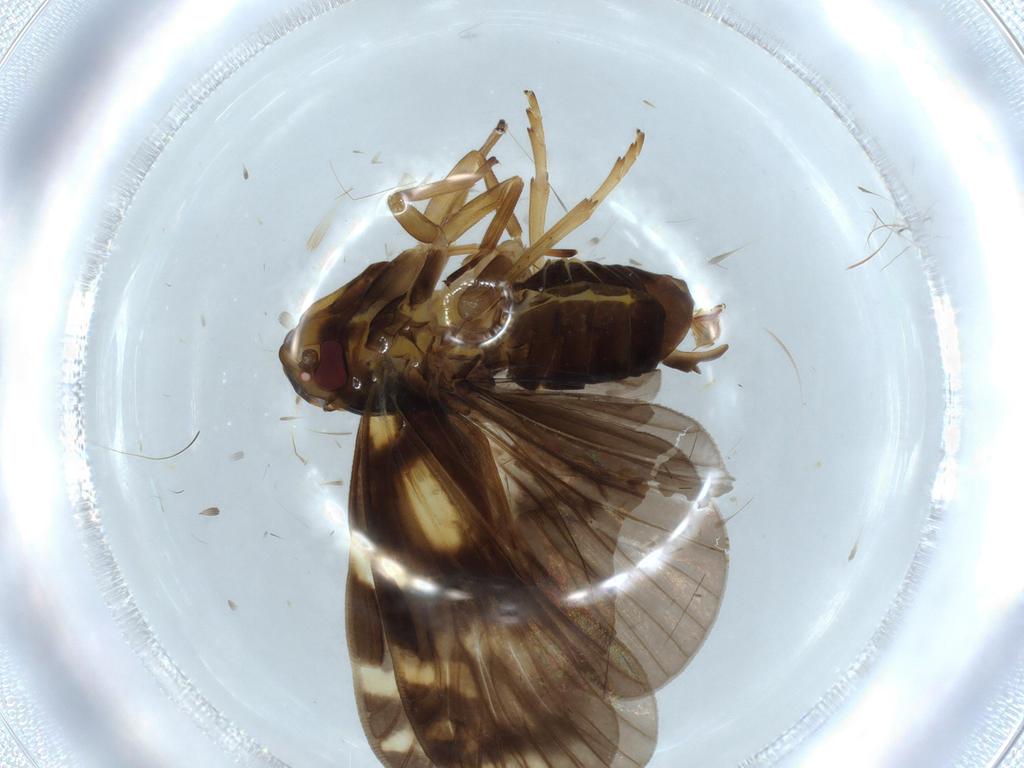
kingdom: Animalia
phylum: Arthropoda
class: Insecta
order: Hemiptera
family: Cixiidae
